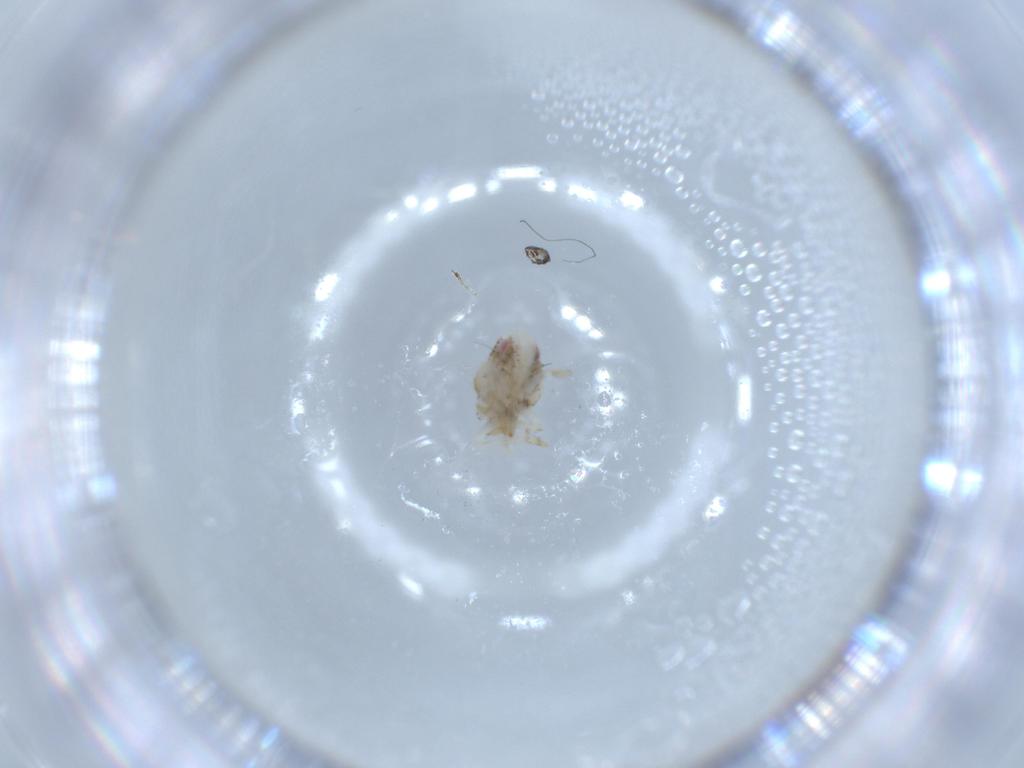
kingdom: Animalia
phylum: Arthropoda
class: Insecta
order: Hemiptera
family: Acanaloniidae
